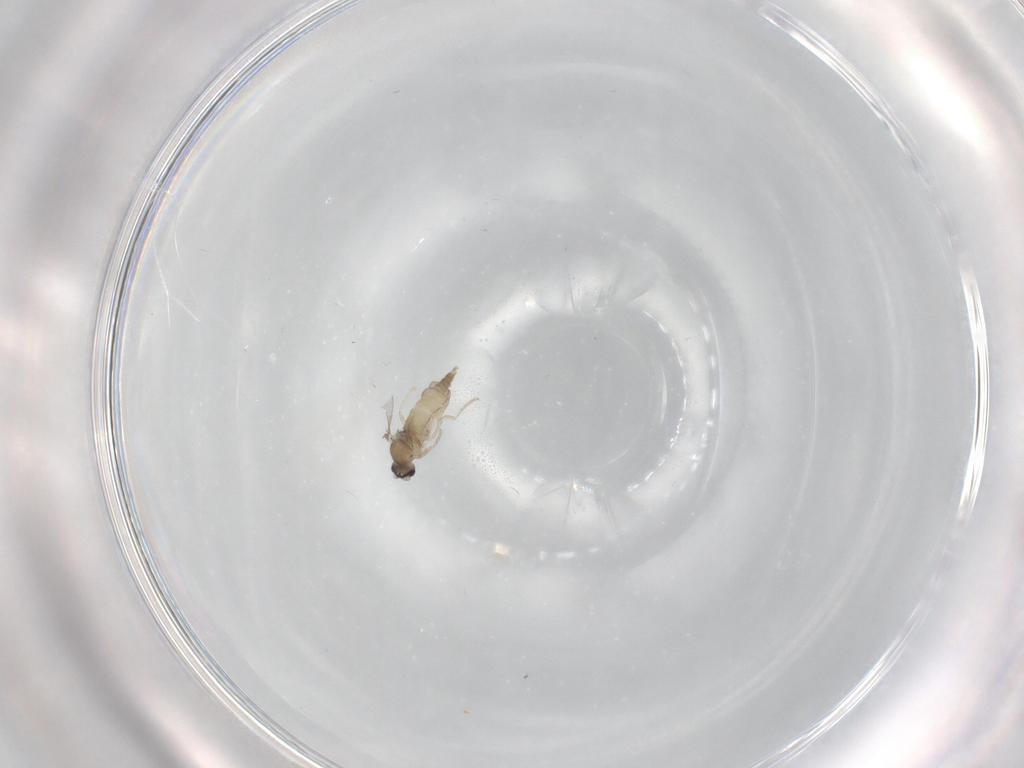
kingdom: Animalia
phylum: Arthropoda
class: Insecta
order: Diptera
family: Cecidomyiidae
